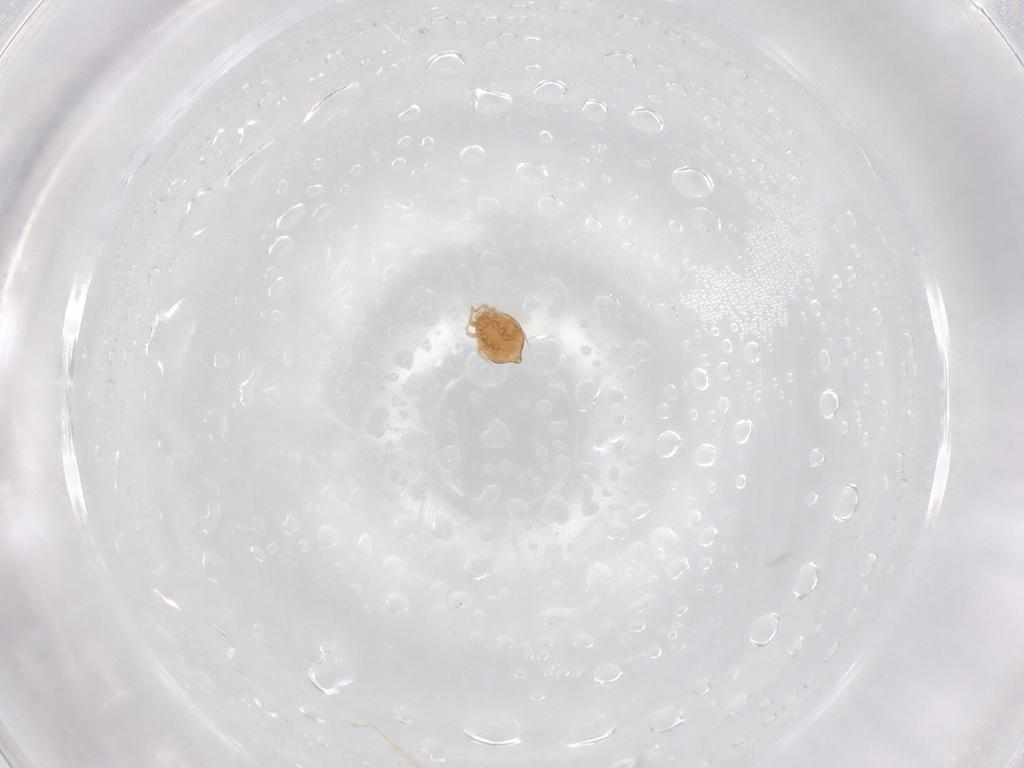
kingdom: Animalia
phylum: Arthropoda
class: Arachnida
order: Mesostigmata
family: Polyaspididae
